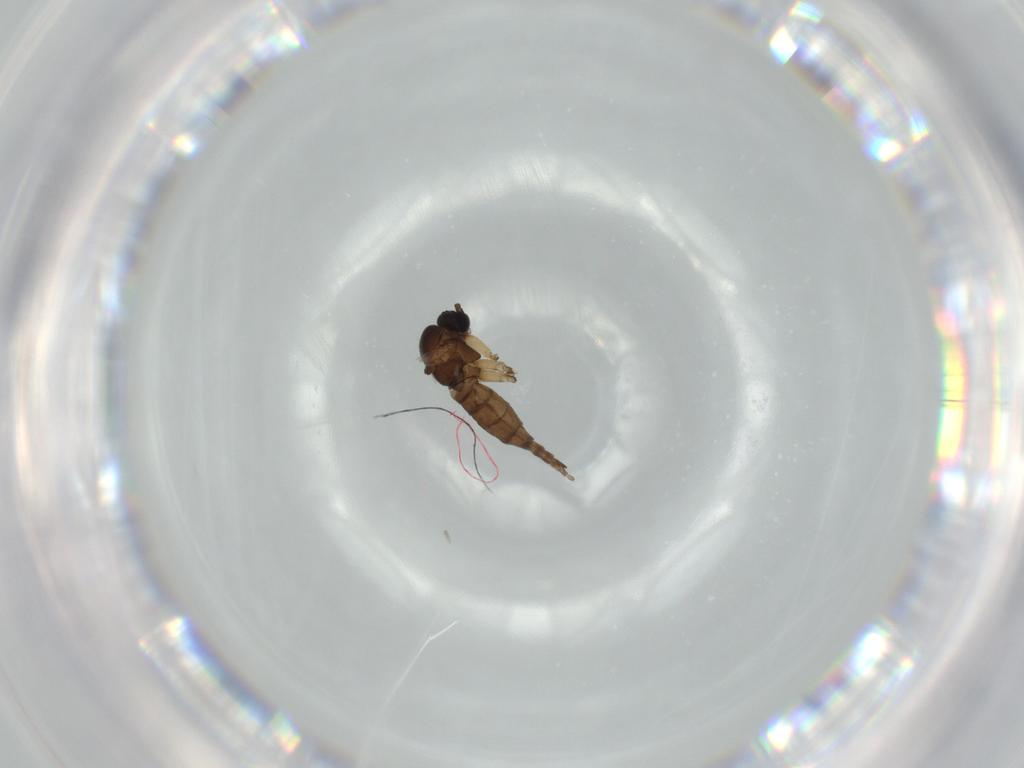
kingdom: Animalia
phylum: Arthropoda
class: Insecta
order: Diptera
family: Sciaridae
